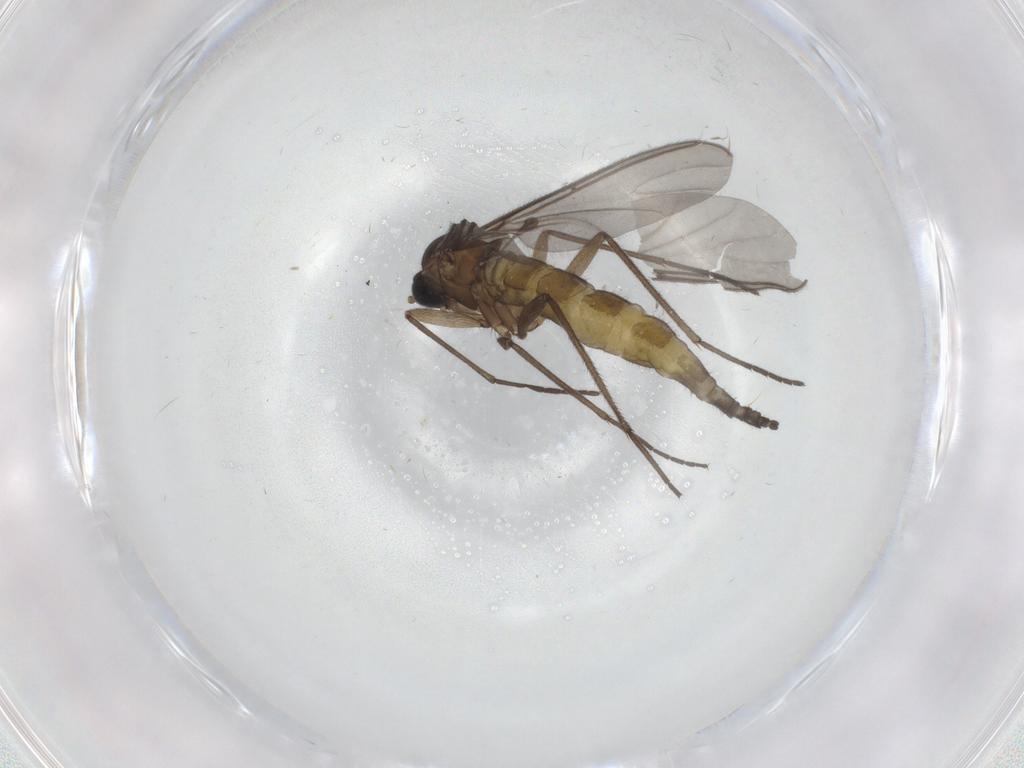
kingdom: Animalia
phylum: Arthropoda
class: Insecta
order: Diptera
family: Sciaridae
